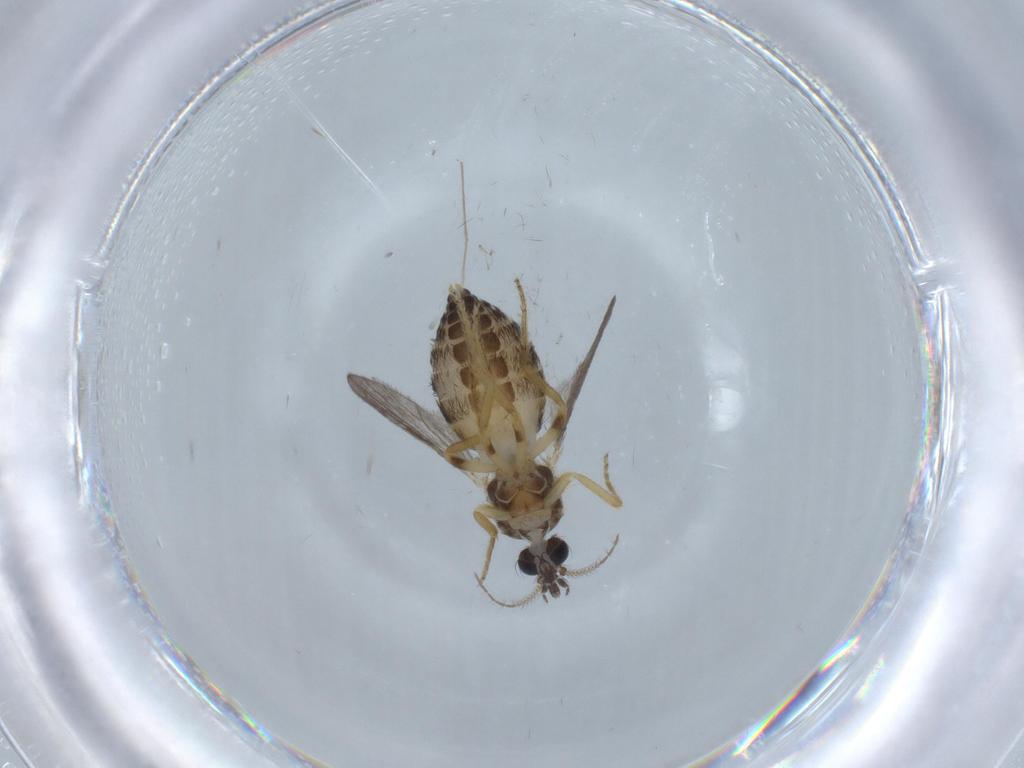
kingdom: Animalia
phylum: Arthropoda
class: Insecta
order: Diptera
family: Ceratopogonidae
